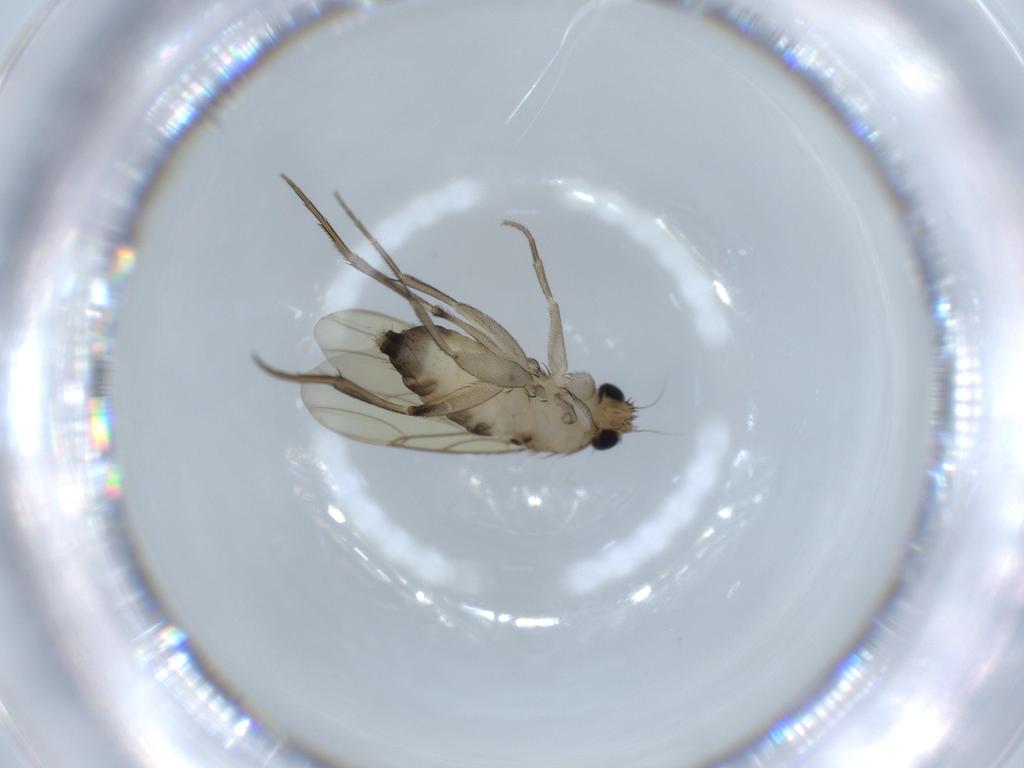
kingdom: Animalia
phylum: Arthropoda
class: Insecta
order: Diptera
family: Phoridae
